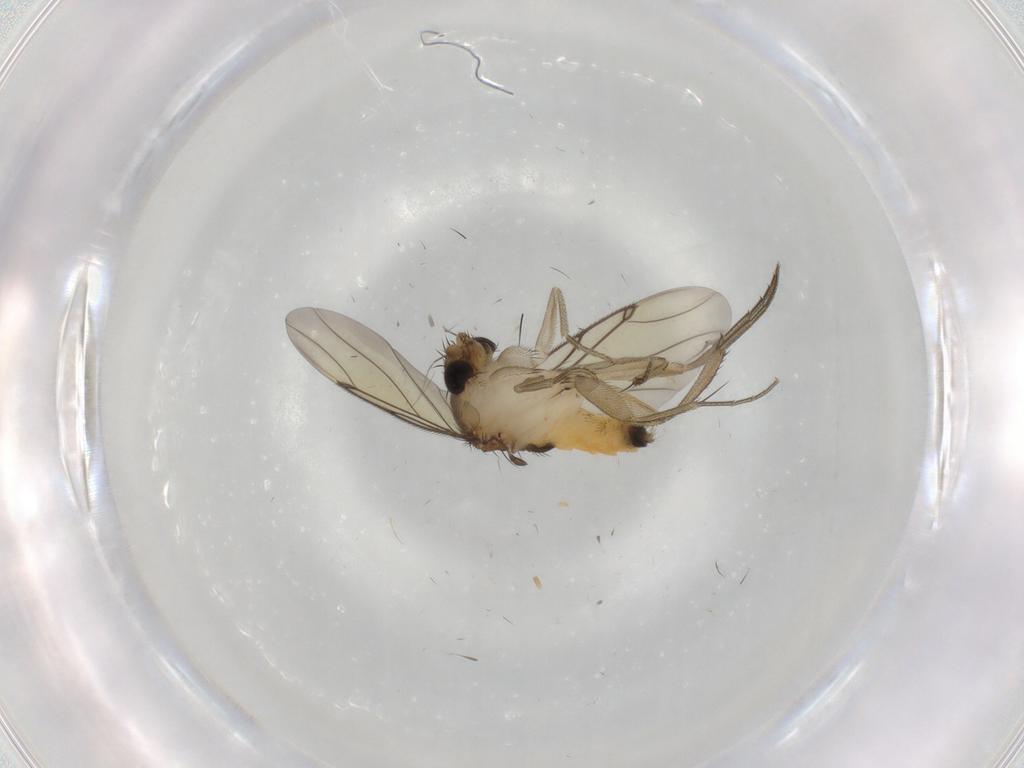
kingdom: Animalia
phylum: Arthropoda
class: Insecta
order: Diptera
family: Phoridae
